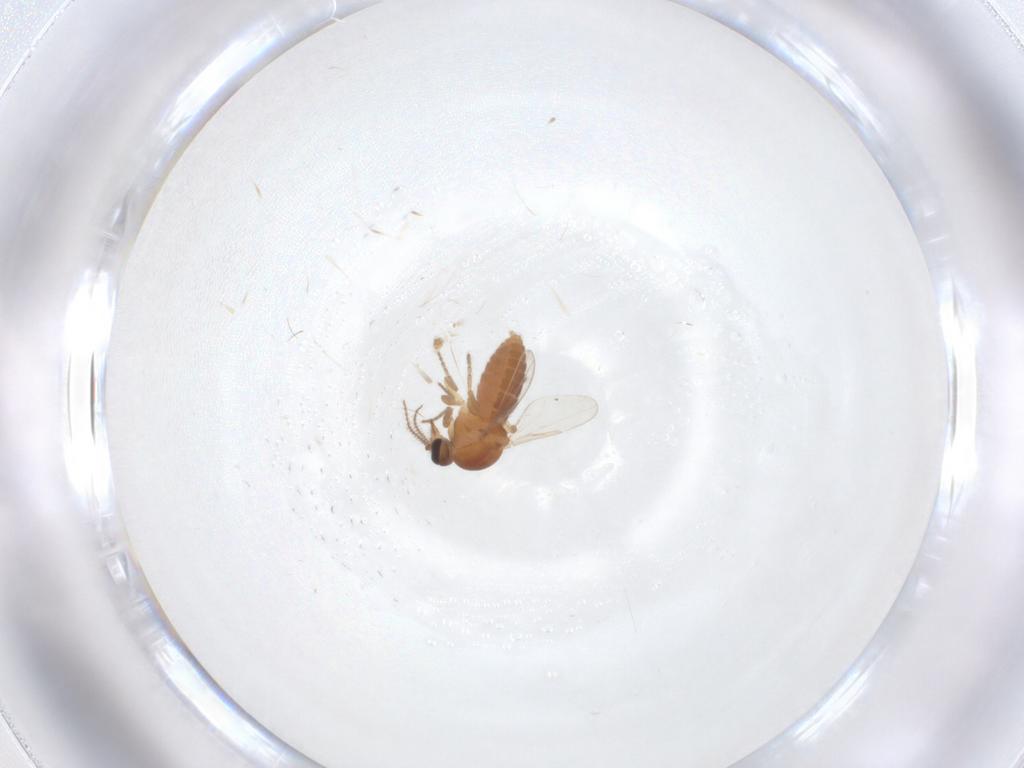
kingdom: Animalia
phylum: Arthropoda
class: Insecta
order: Diptera
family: Ceratopogonidae
